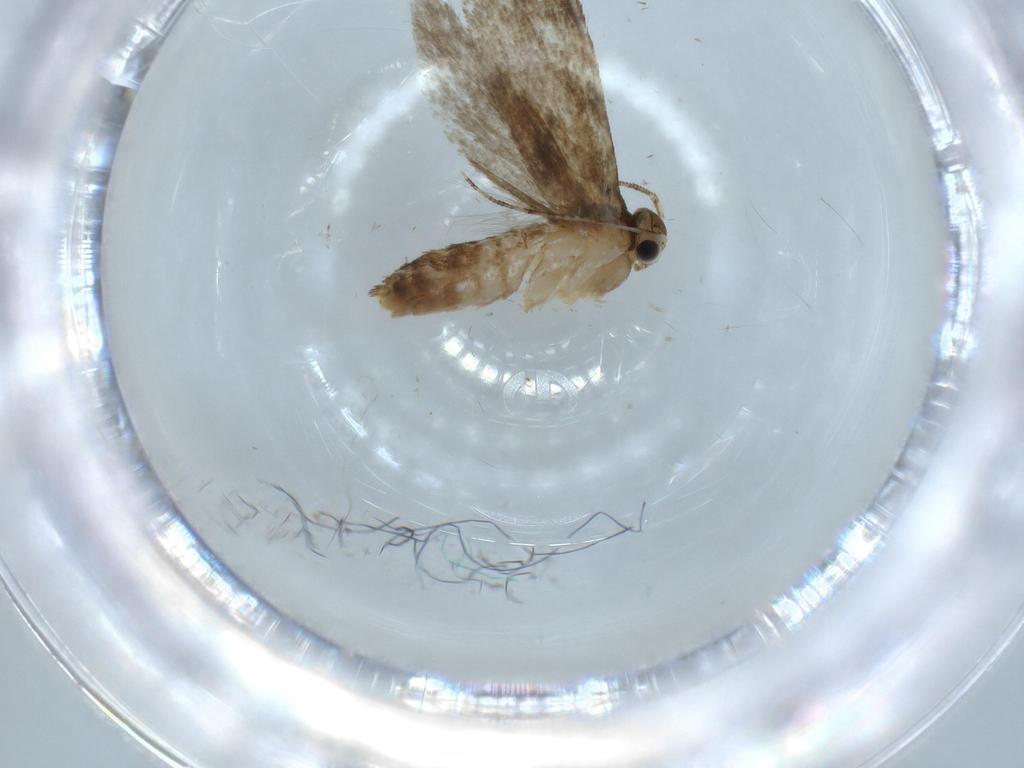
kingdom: Animalia
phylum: Arthropoda
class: Insecta
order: Lepidoptera
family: Tineidae
